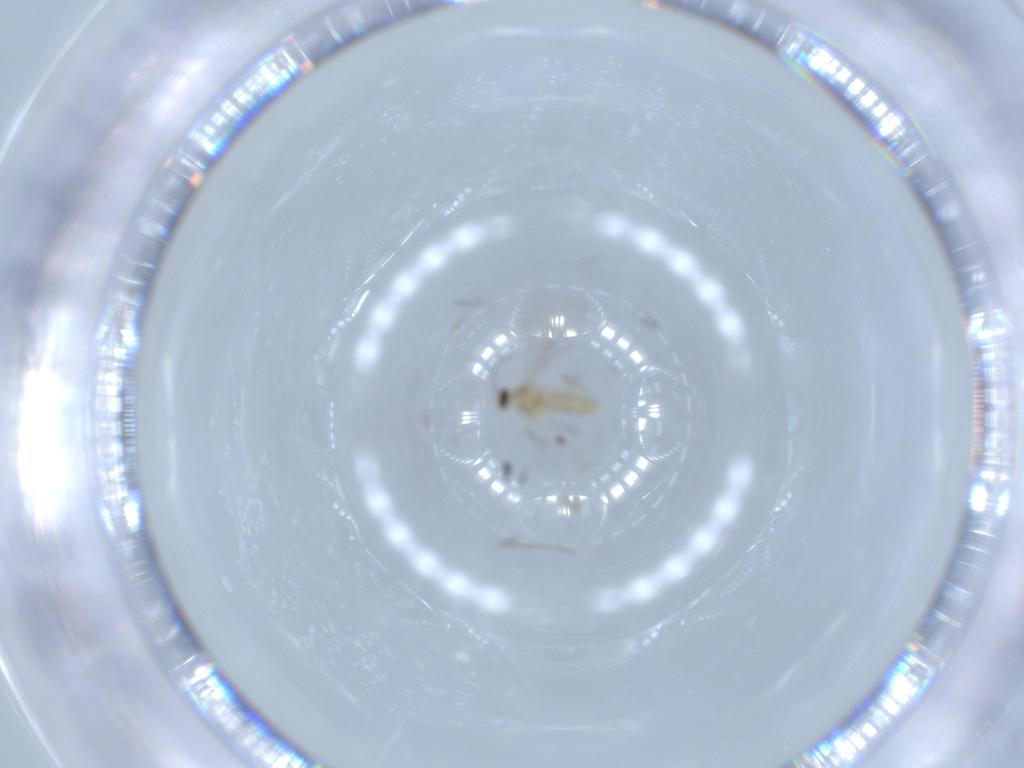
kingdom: Animalia
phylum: Arthropoda
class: Insecta
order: Diptera
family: Cecidomyiidae
